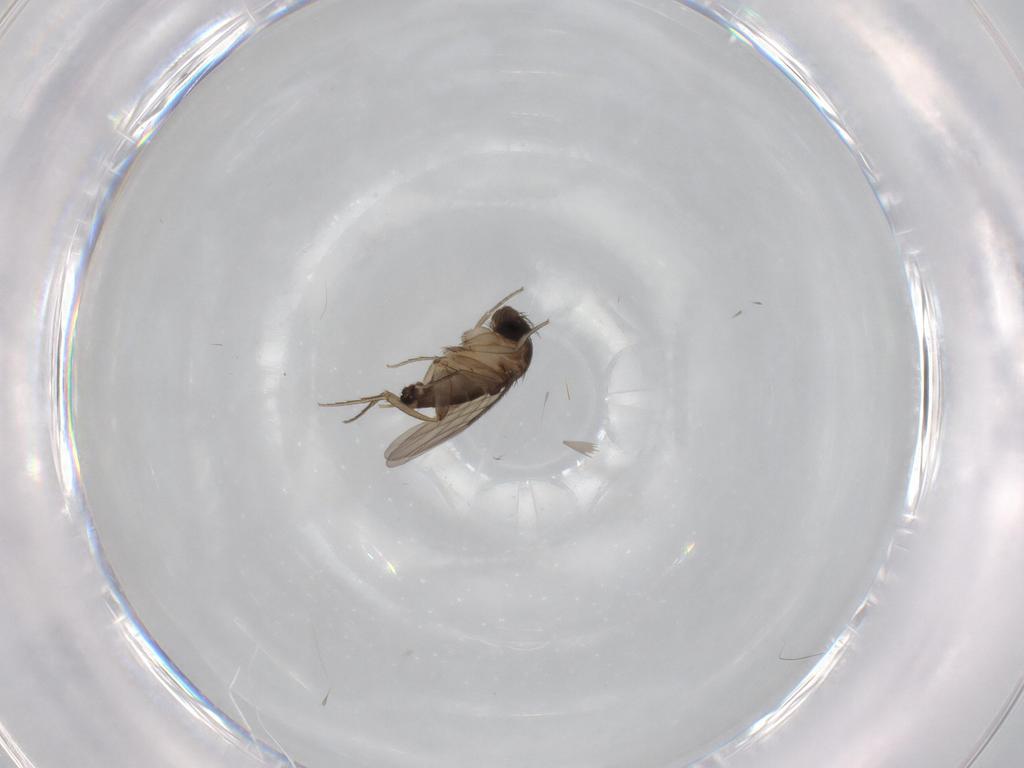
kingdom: Animalia
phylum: Arthropoda
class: Insecta
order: Diptera
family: Phoridae
